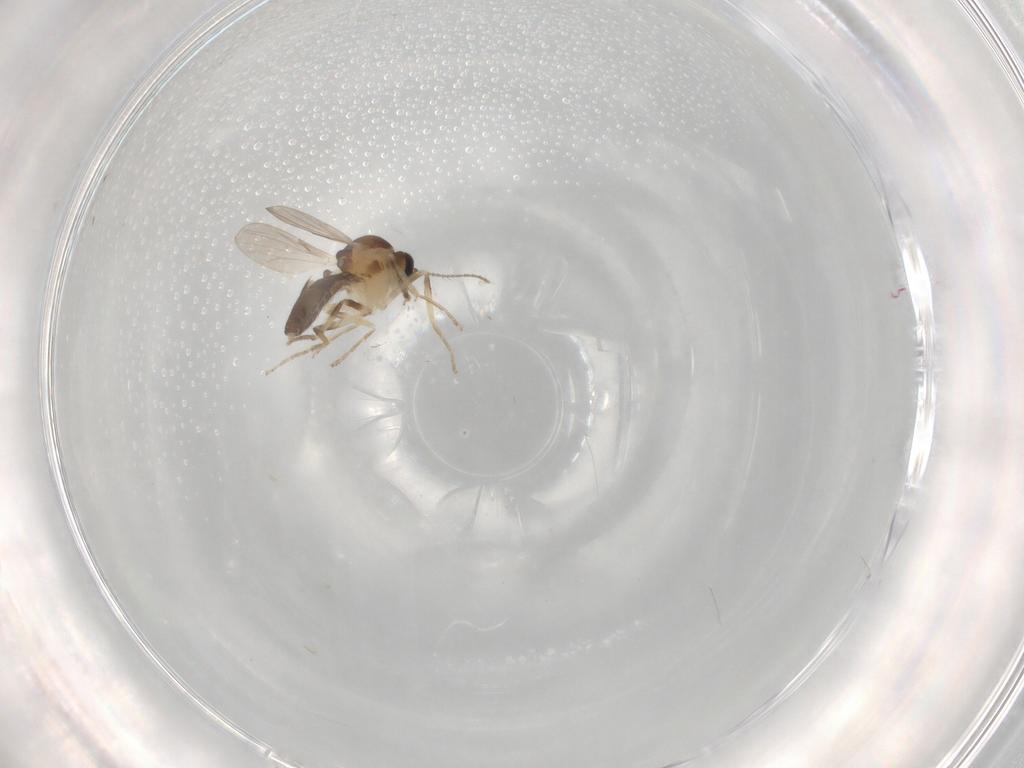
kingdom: Animalia
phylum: Arthropoda
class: Insecta
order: Diptera
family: Ceratopogonidae
